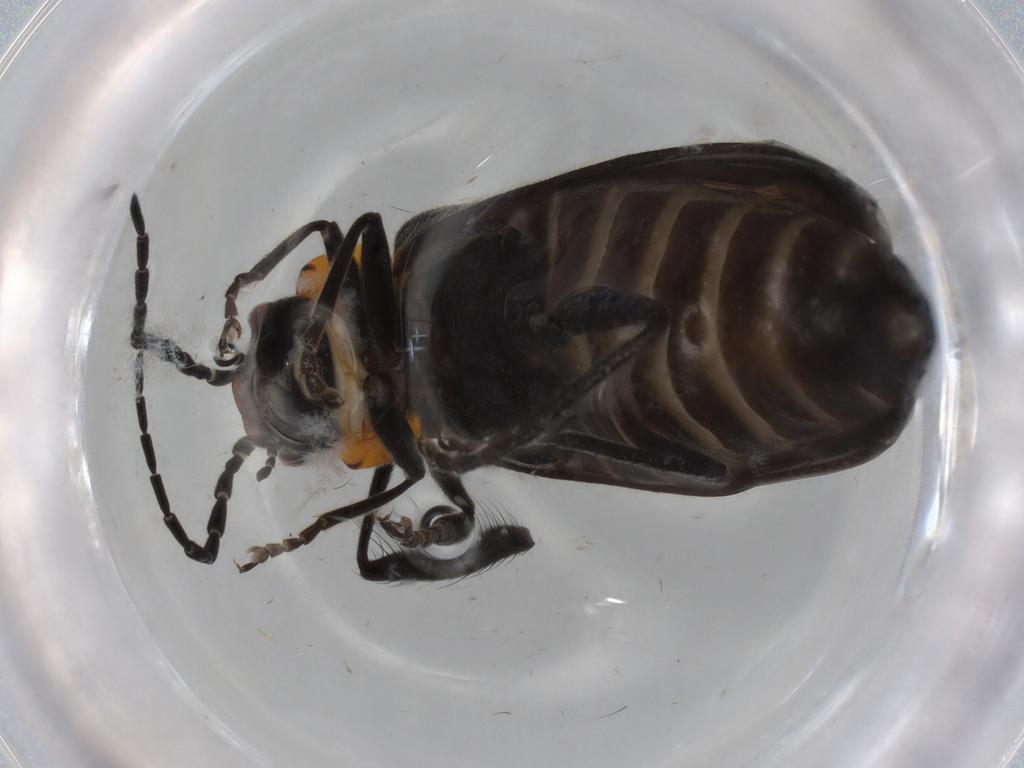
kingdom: Animalia
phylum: Arthropoda
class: Insecta
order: Coleoptera
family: Cantharidae
